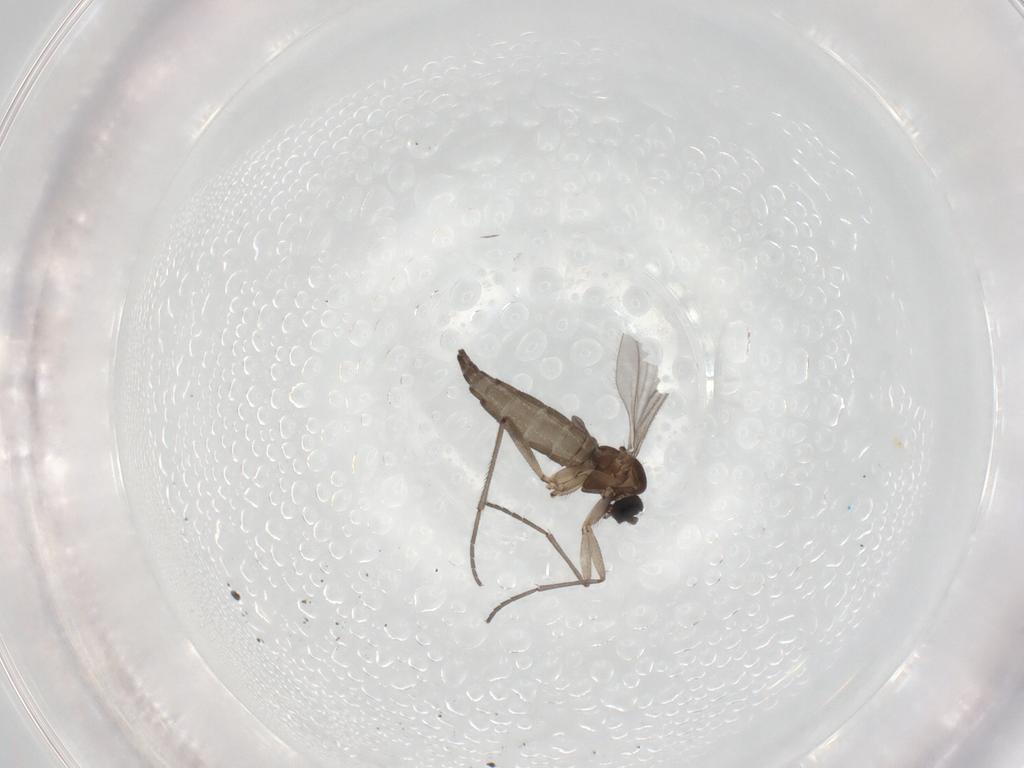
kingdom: Animalia
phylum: Arthropoda
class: Insecta
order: Diptera
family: Sciaridae
